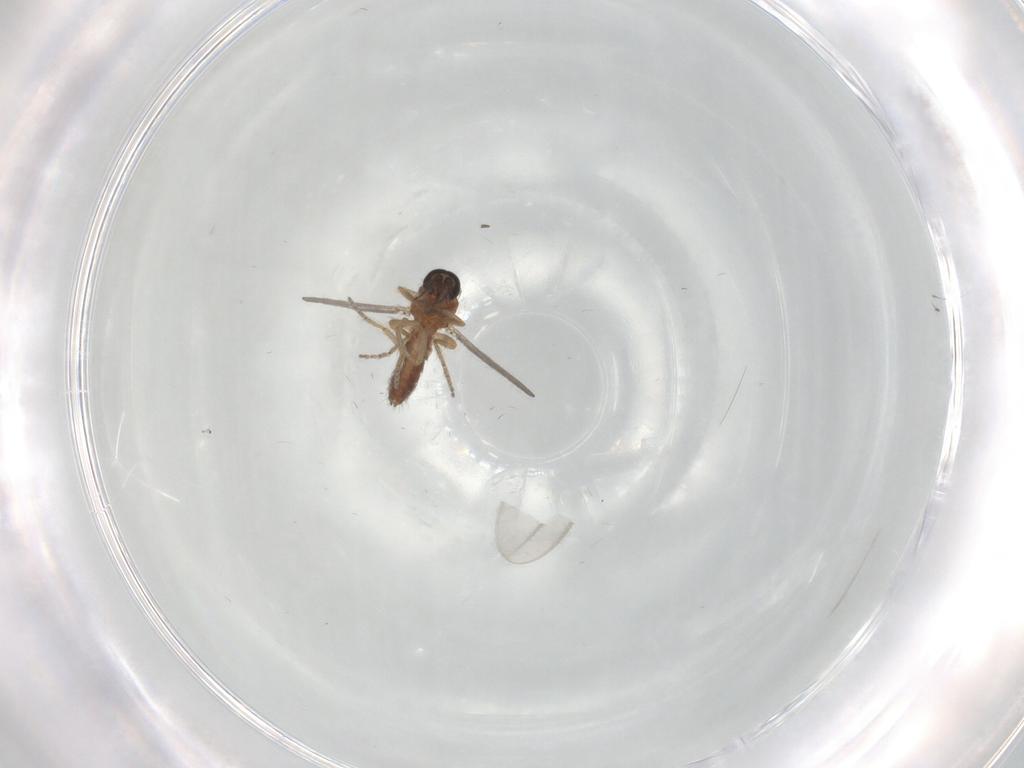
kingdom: Animalia
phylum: Arthropoda
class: Insecta
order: Diptera
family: Ceratopogonidae
